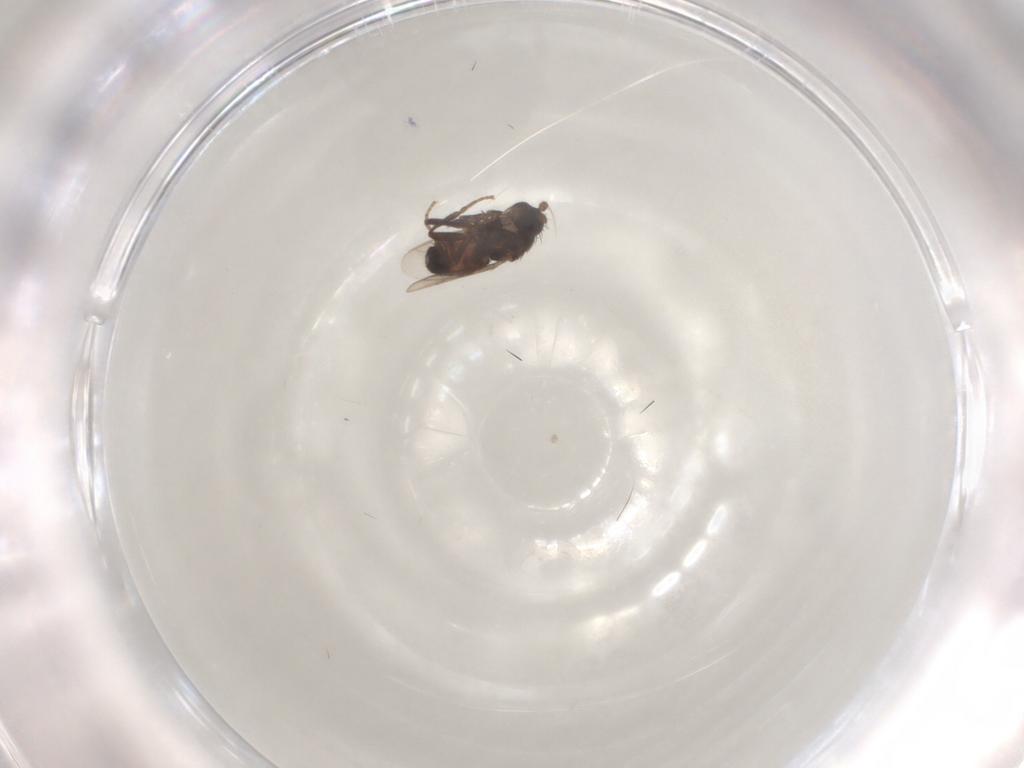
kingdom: Animalia
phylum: Arthropoda
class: Insecta
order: Diptera
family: Sphaeroceridae
